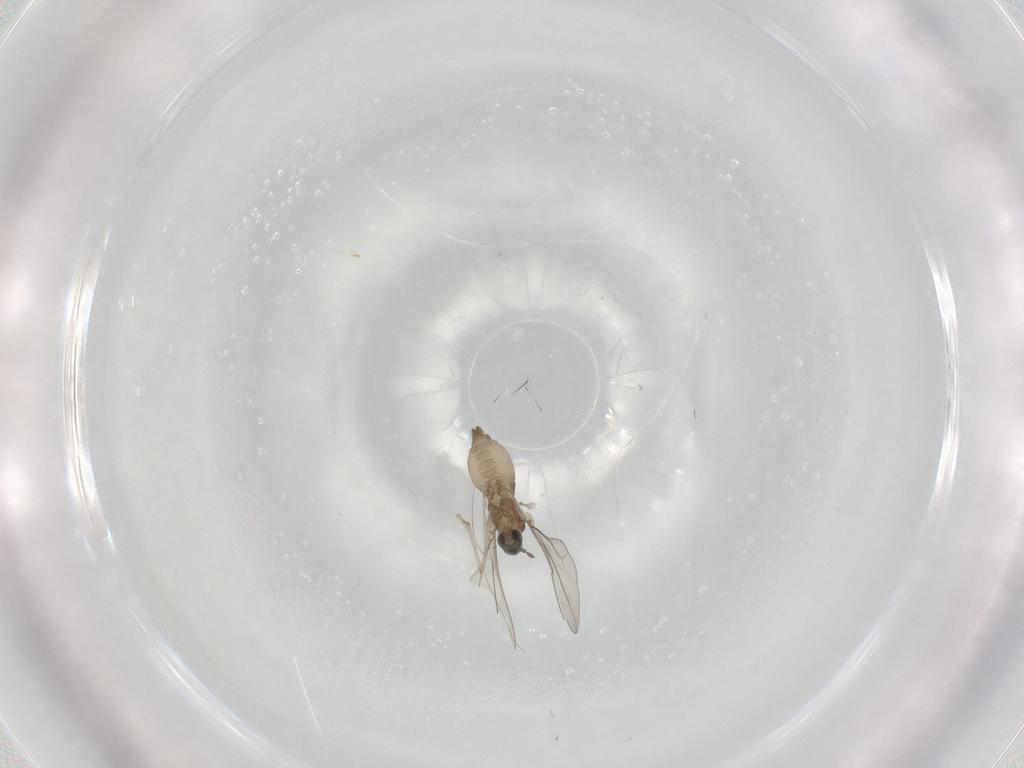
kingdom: Animalia
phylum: Arthropoda
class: Insecta
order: Diptera
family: Cecidomyiidae
